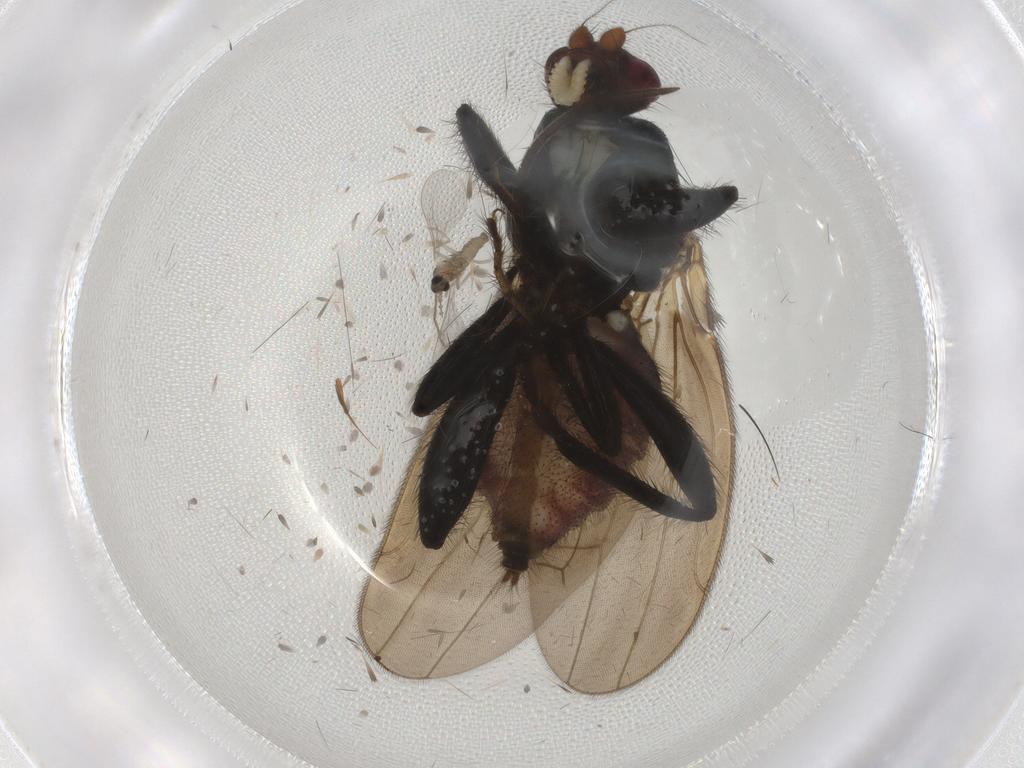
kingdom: Animalia
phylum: Arthropoda
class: Insecta
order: Diptera
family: Sphaeroceridae
